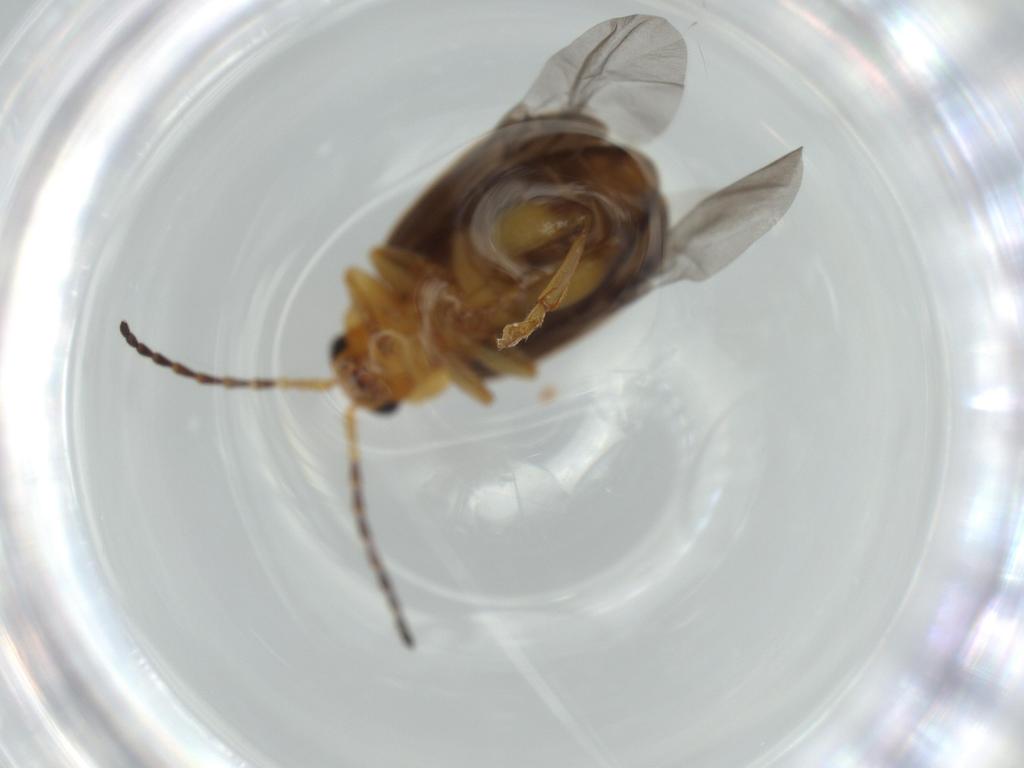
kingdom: Animalia
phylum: Arthropoda
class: Insecta
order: Coleoptera
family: Chrysomelidae
